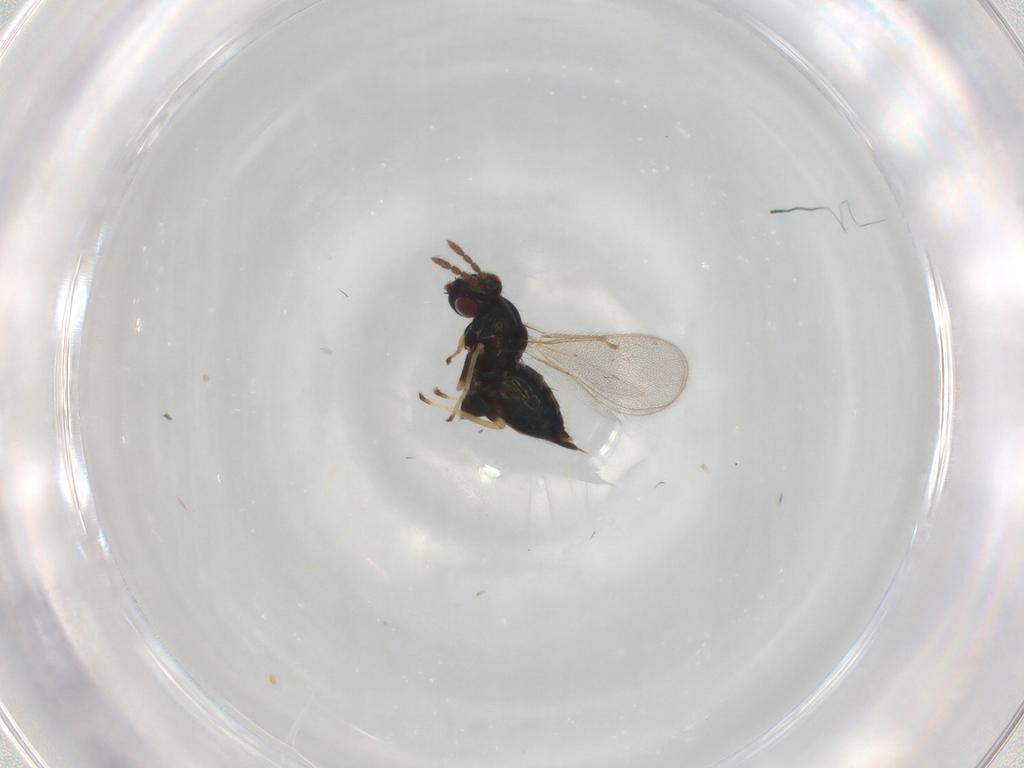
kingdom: Animalia
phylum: Arthropoda
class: Insecta
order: Hymenoptera
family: Eulophidae
